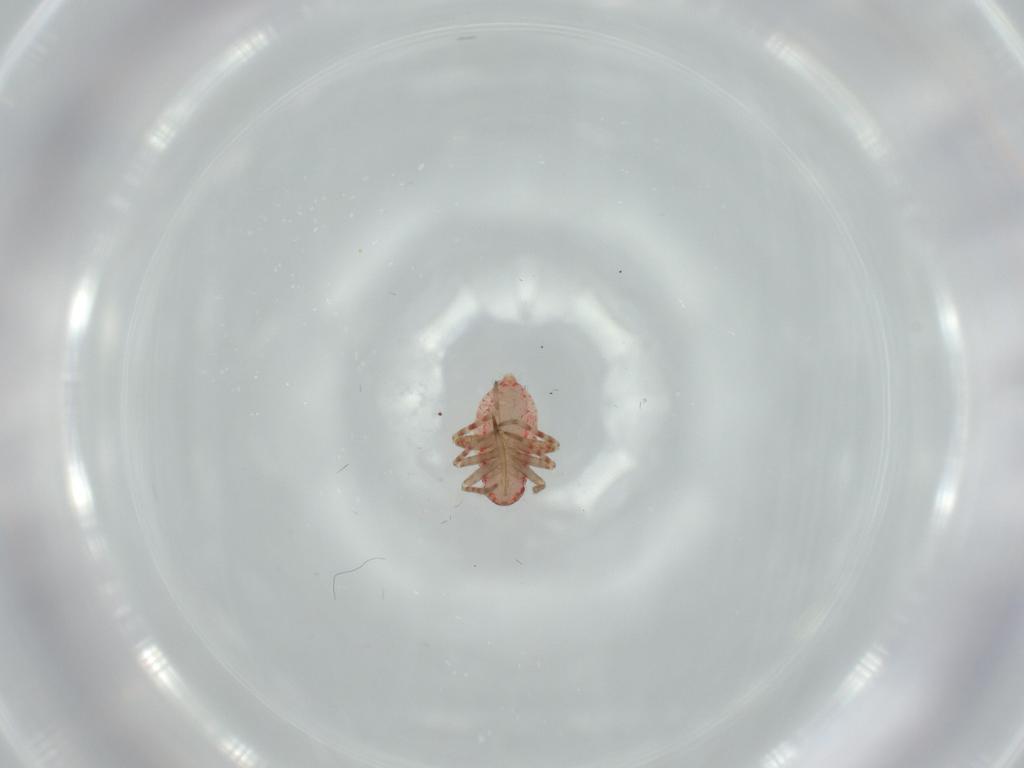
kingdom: Animalia
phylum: Arthropoda
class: Insecta
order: Hemiptera
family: Miridae
